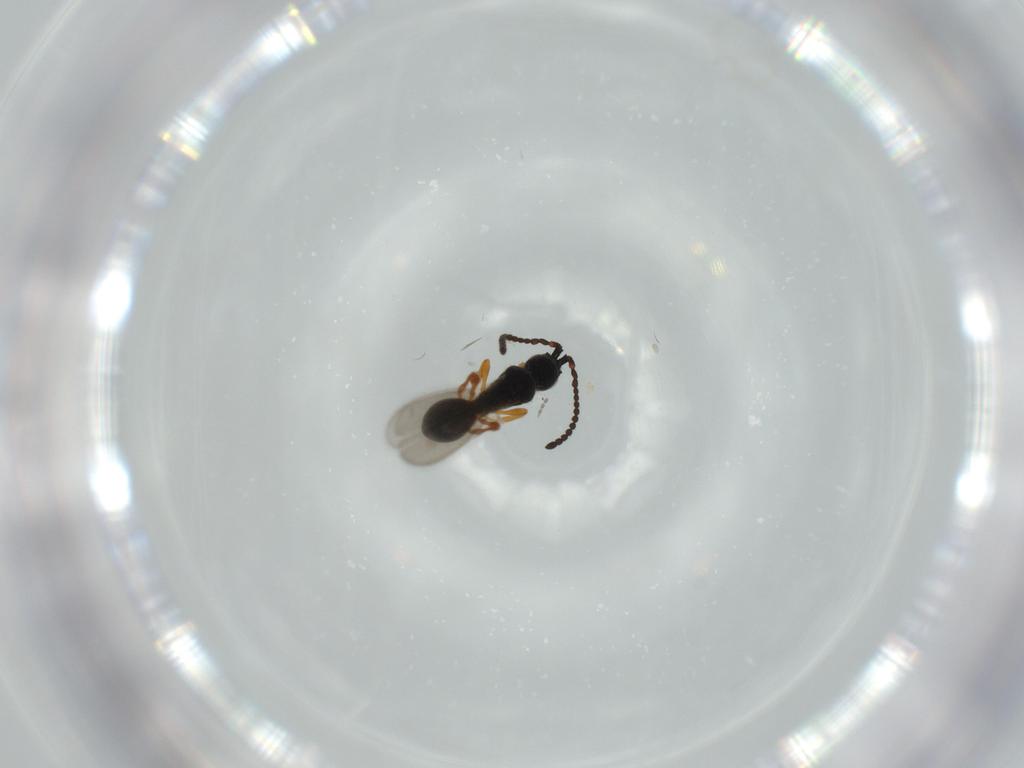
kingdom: Animalia
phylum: Arthropoda
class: Insecta
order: Hymenoptera
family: Diapriidae
